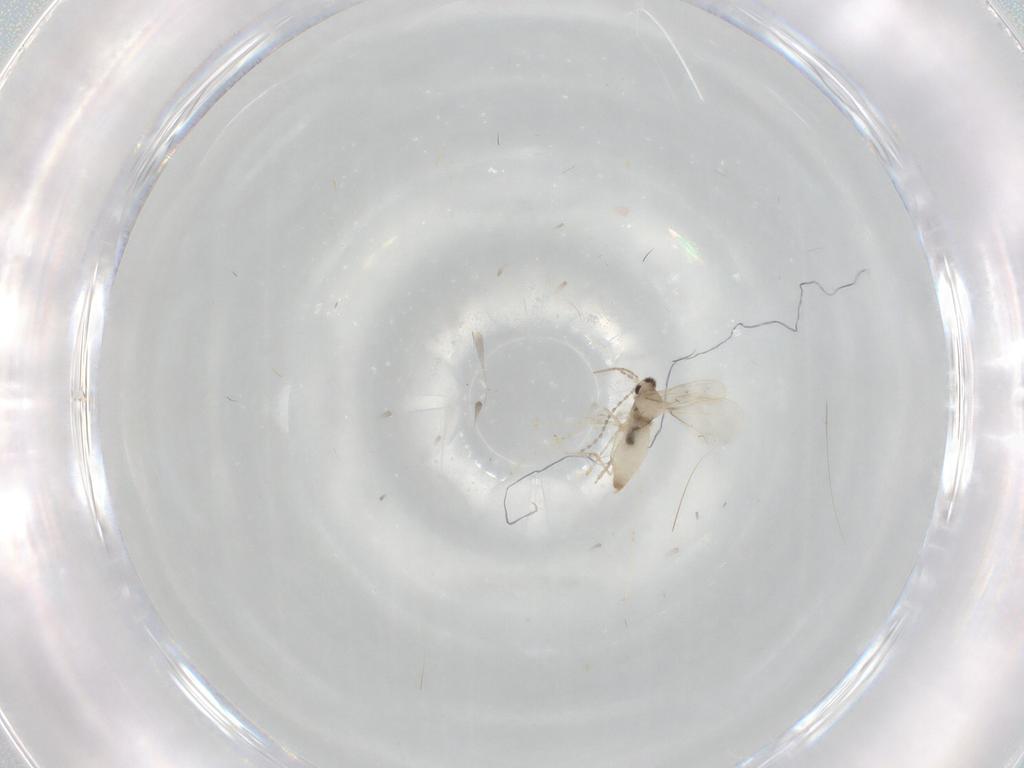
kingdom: Animalia
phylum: Arthropoda
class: Insecta
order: Diptera
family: Cecidomyiidae
